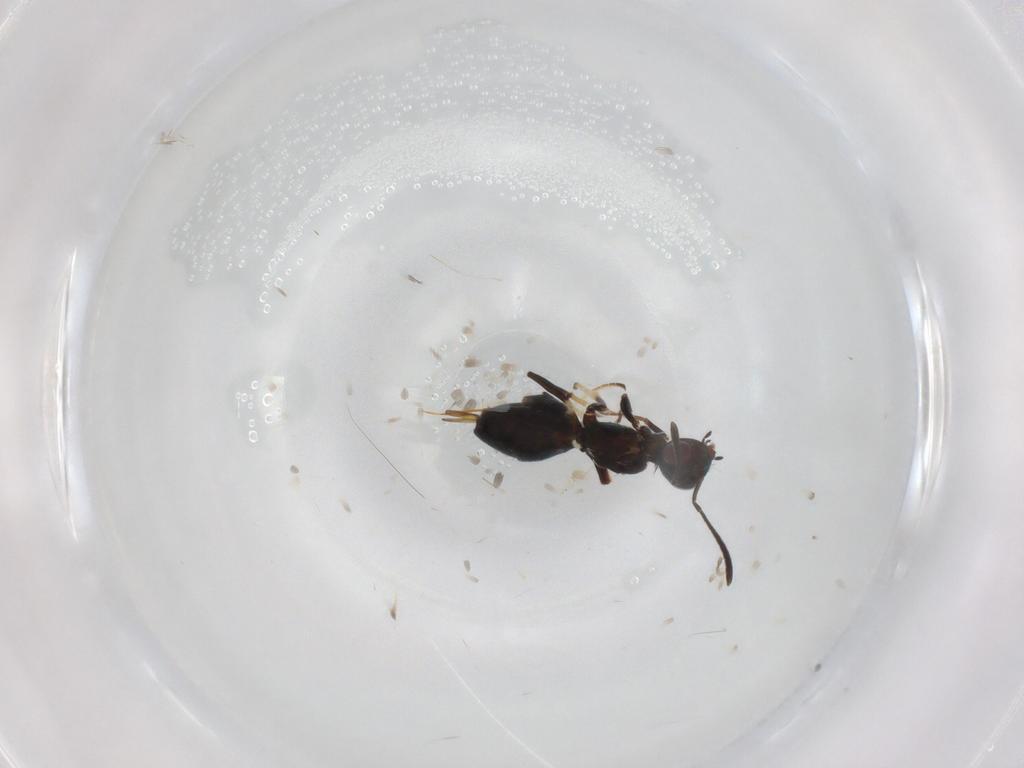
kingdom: Animalia
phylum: Arthropoda
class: Insecta
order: Hymenoptera
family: Eupelmidae
